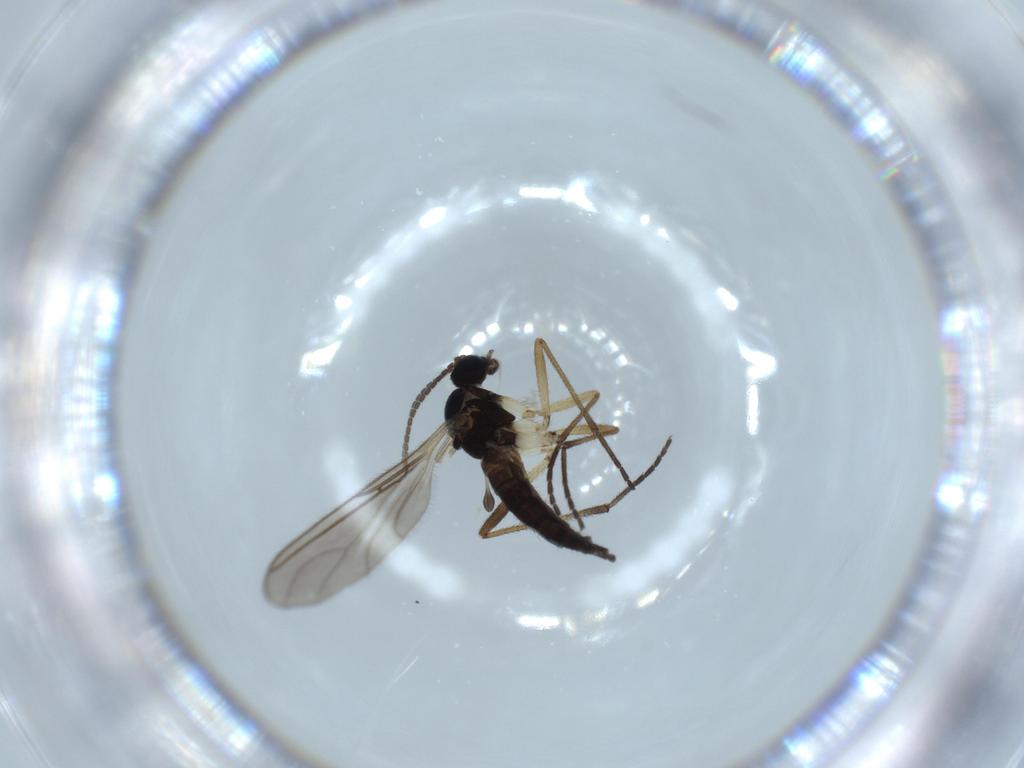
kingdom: Animalia
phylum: Arthropoda
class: Insecta
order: Diptera
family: Sciaridae
